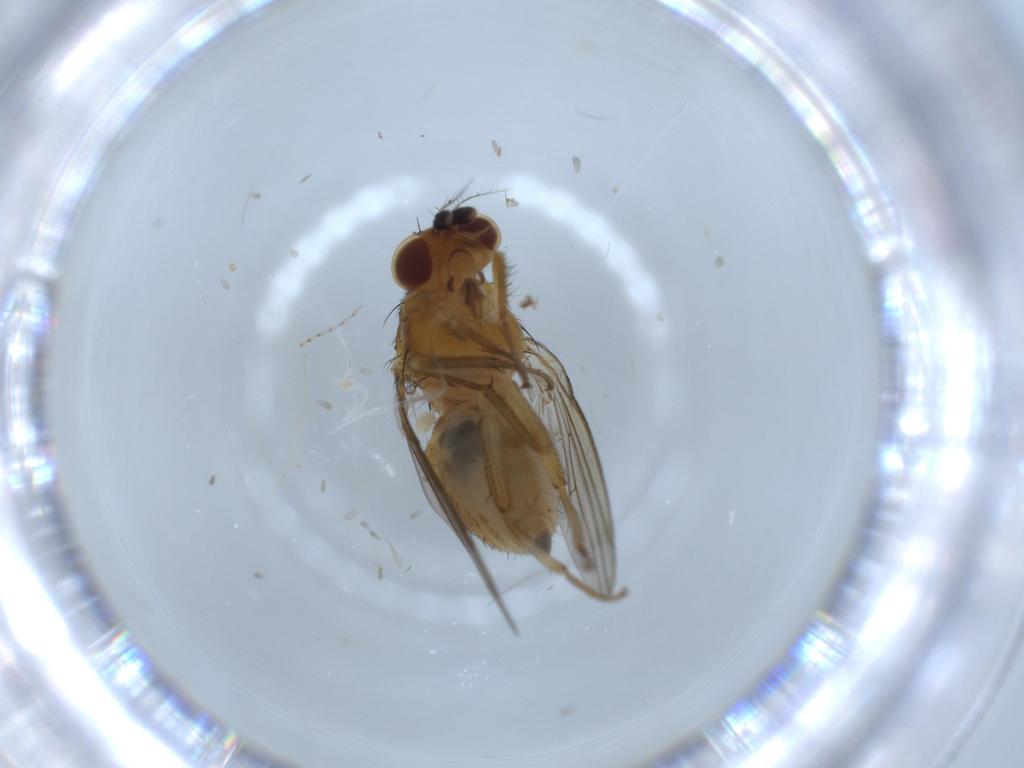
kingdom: Animalia
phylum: Arthropoda
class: Insecta
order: Diptera
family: Lauxaniidae
